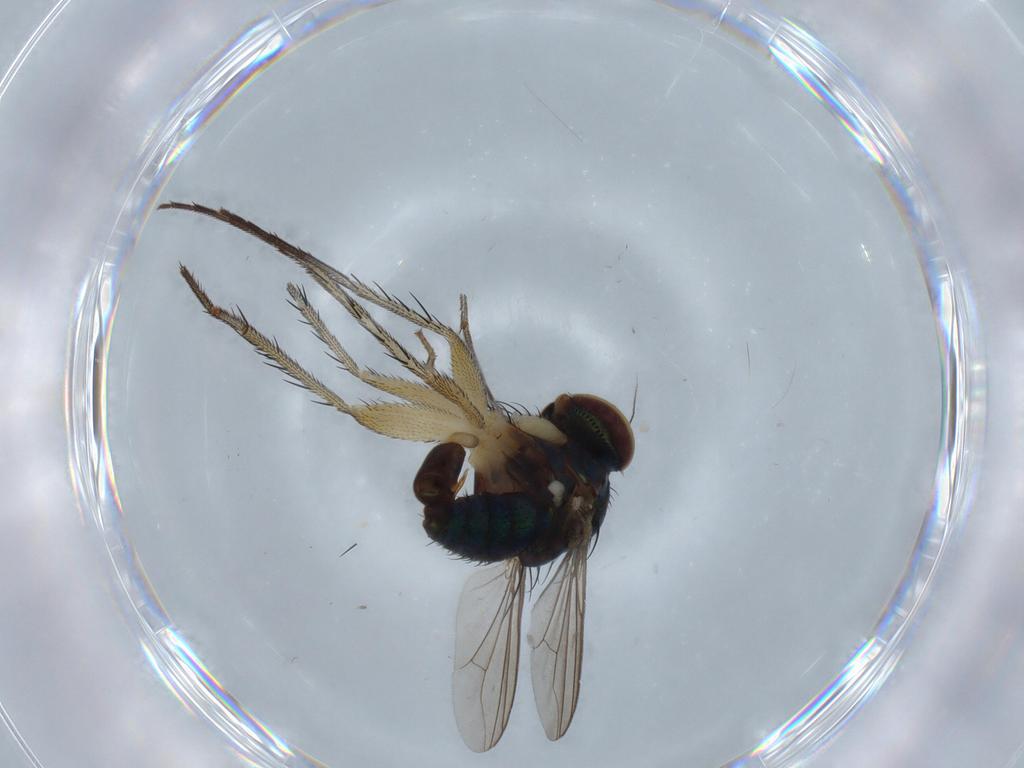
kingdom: Animalia
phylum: Arthropoda
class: Insecta
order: Diptera
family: Dolichopodidae
